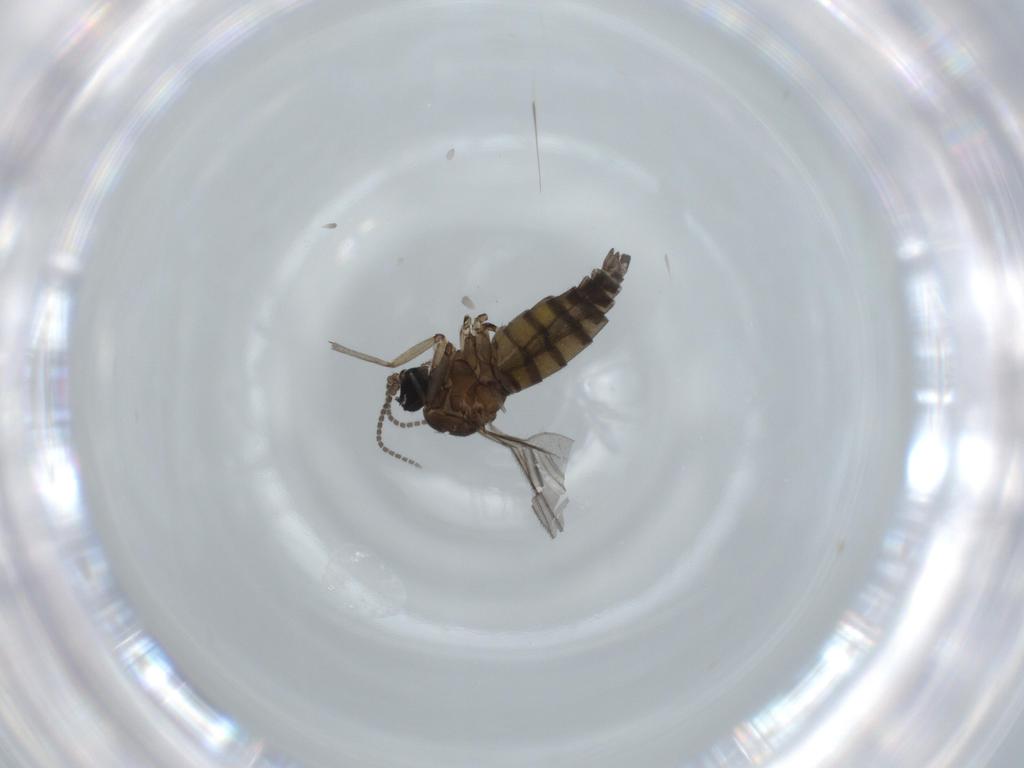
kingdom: Animalia
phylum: Arthropoda
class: Insecta
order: Diptera
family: Sciaridae
